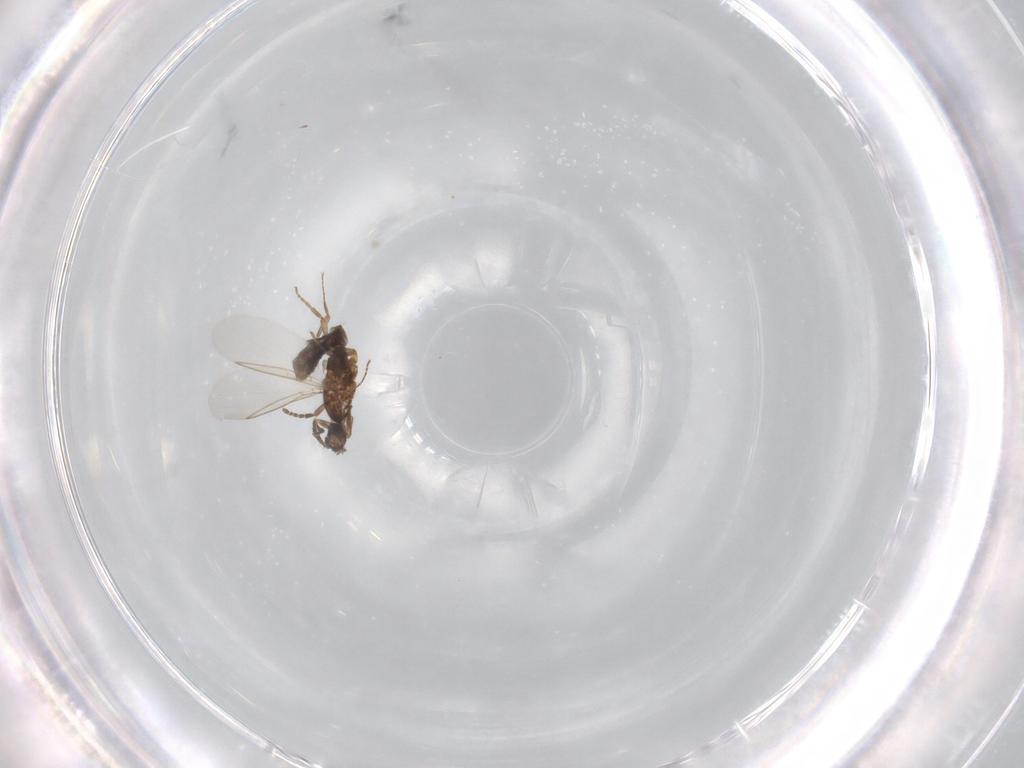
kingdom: Animalia
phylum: Arthropoda
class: Insecta
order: Diptera
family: Scatopsidae
